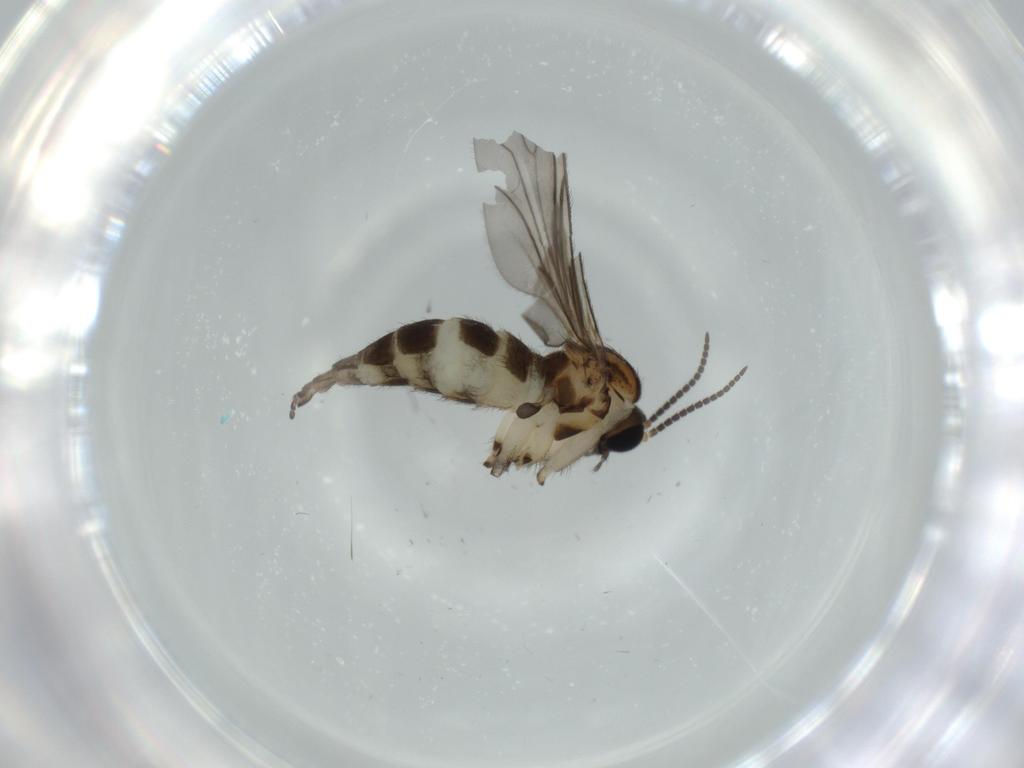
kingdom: Animalia
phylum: Arthropoda
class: Insecta
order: Diptera
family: Sciaridae
